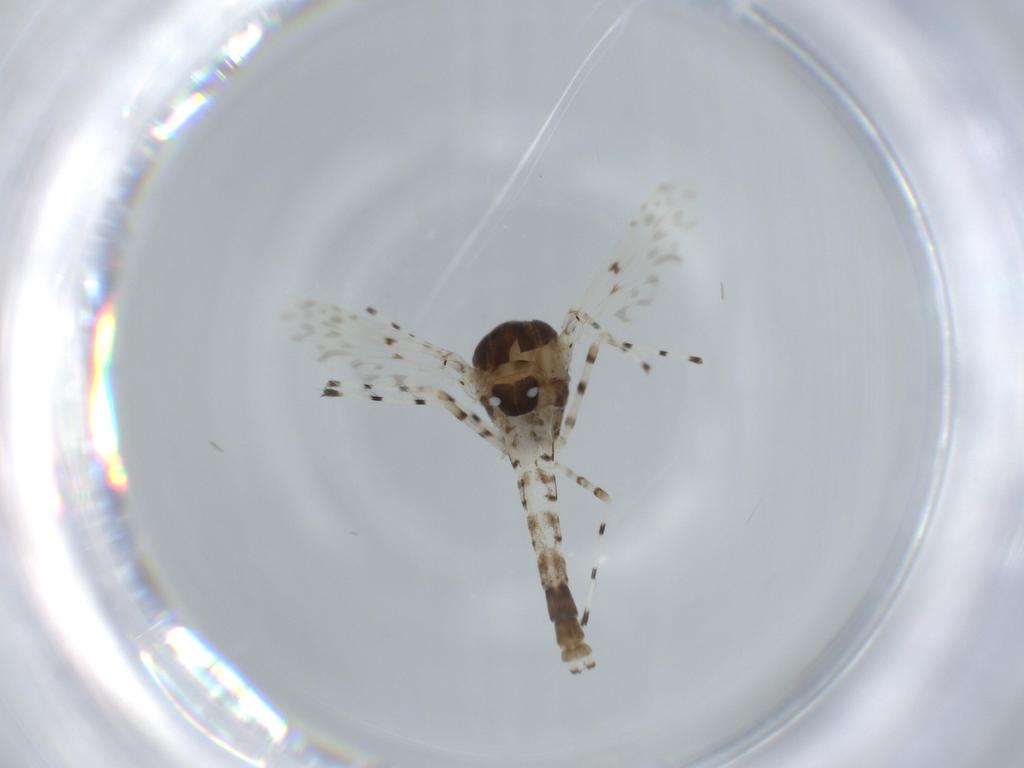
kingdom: Animalia
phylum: Arthropoda
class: Insecta
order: Diptera
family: Chironomidae
